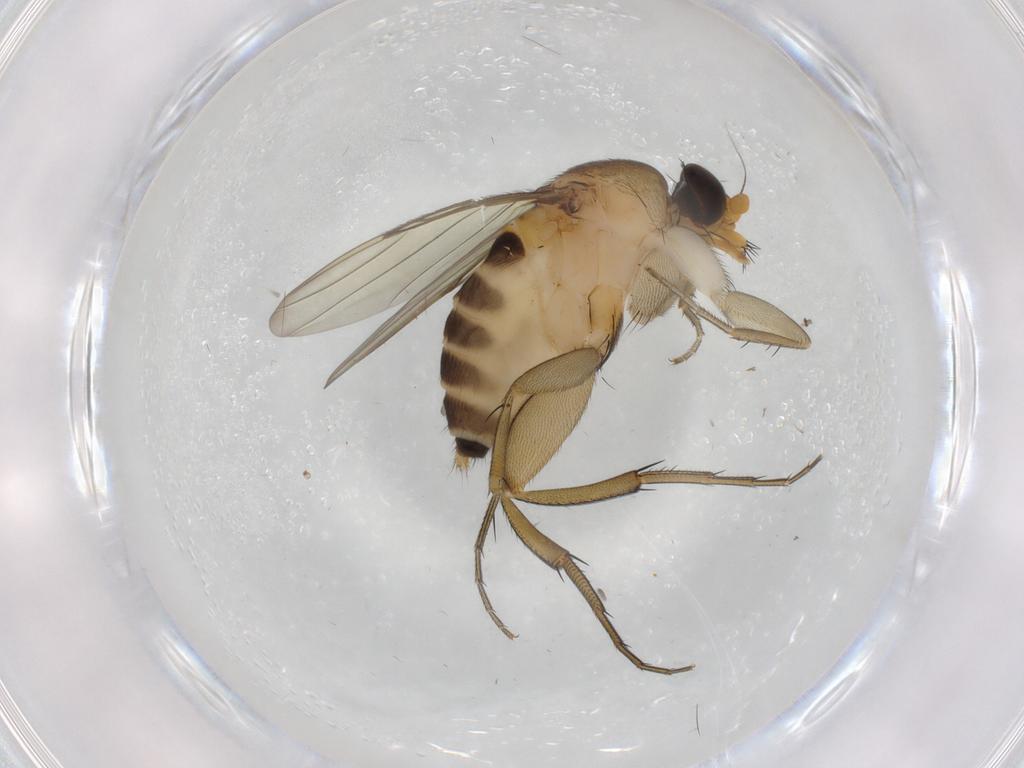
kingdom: Animalia
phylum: Arthropoda
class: Insecta
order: Diptera
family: Phoridae
